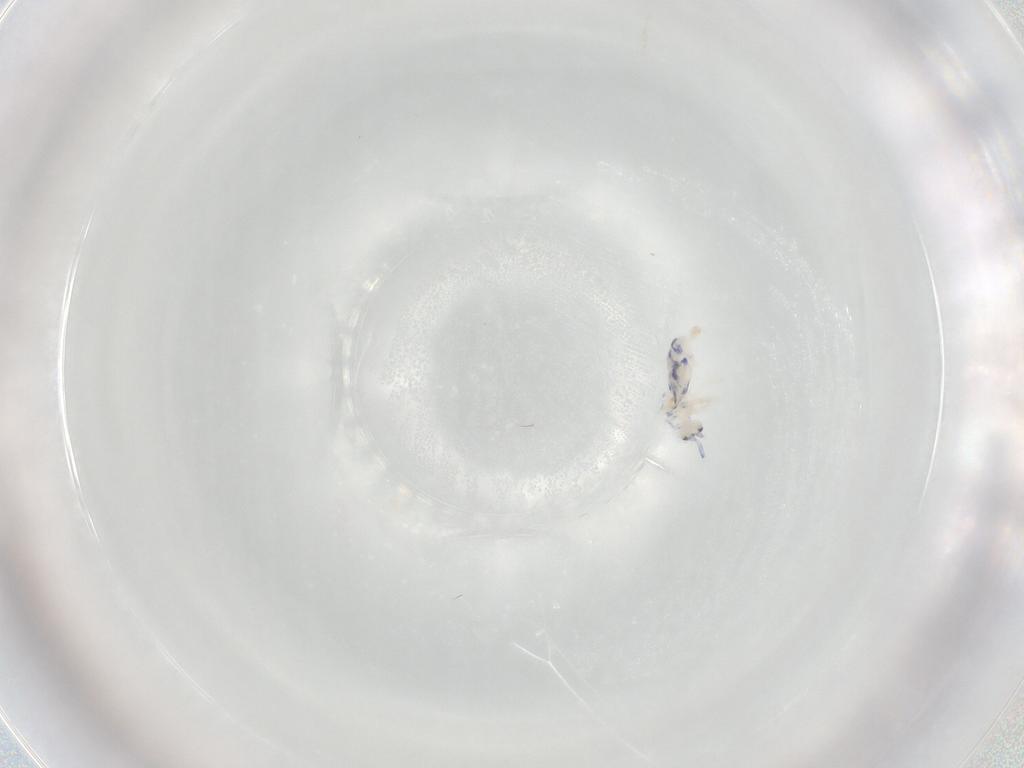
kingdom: Animalia
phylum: Arthropoda
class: Collembola
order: Entomobryomorpha
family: Entomobryidae
